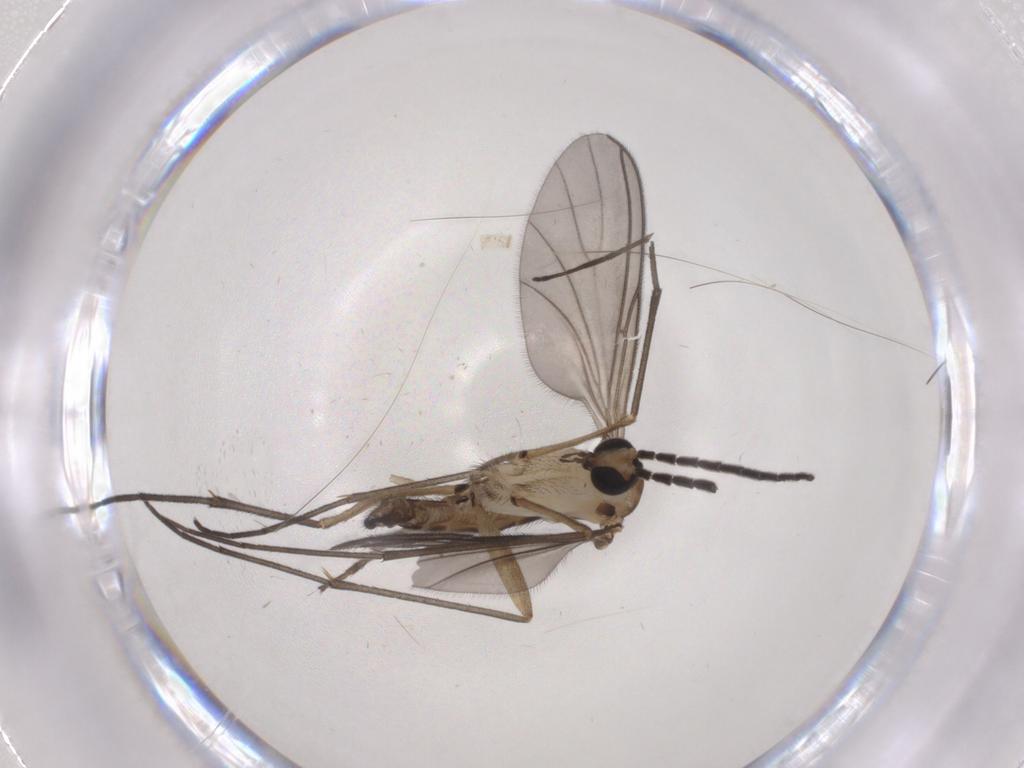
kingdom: Animalia
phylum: Arthropoda
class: Insecta
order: Diptera
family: Sciaridae
